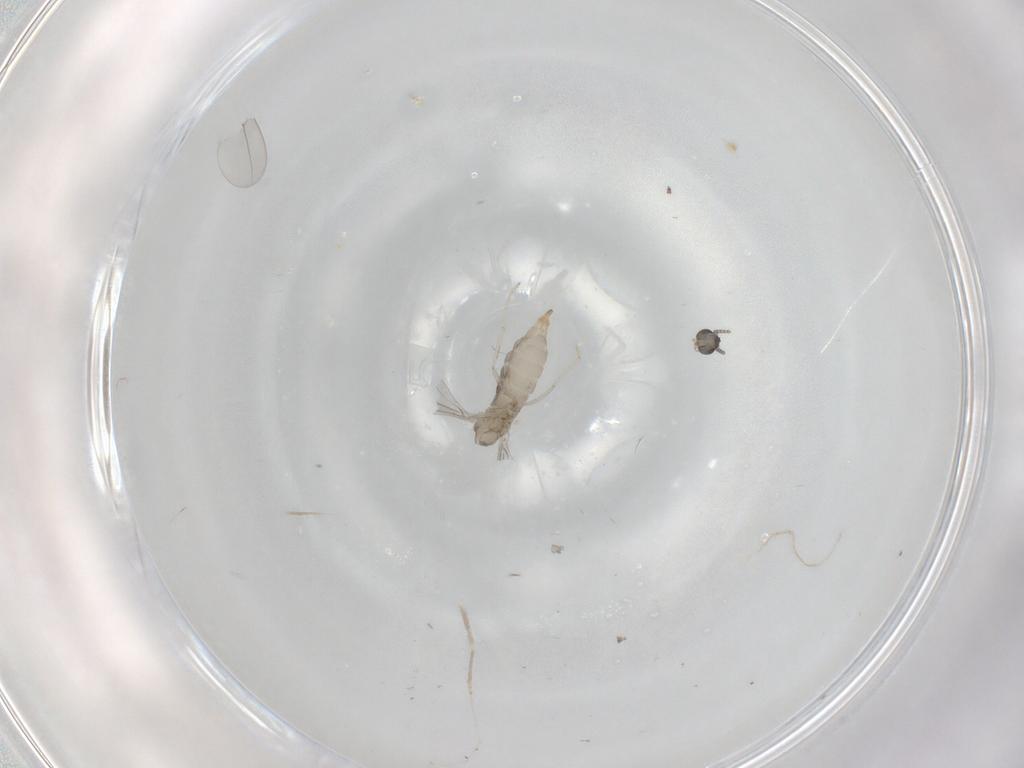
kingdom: Animalia
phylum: Arthropoda
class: Insecta
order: Diptera
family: Cecidomyiidae
